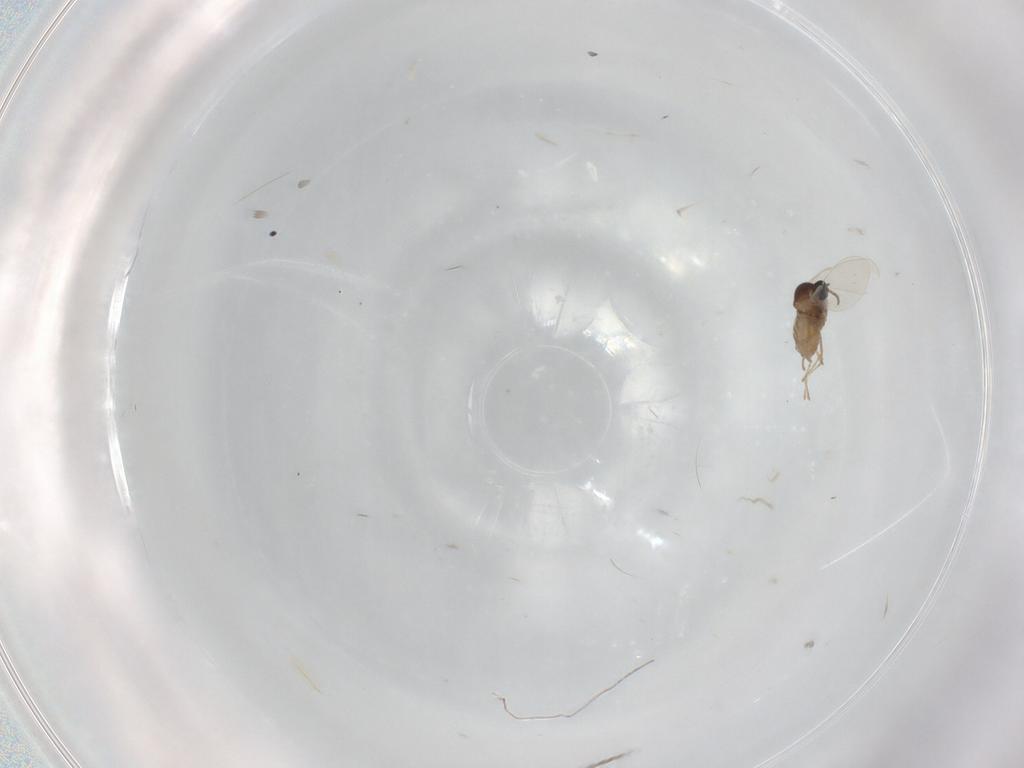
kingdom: Animalia
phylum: Arthropoda
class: Insecta
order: Diptera
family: Cecidomyiidae
